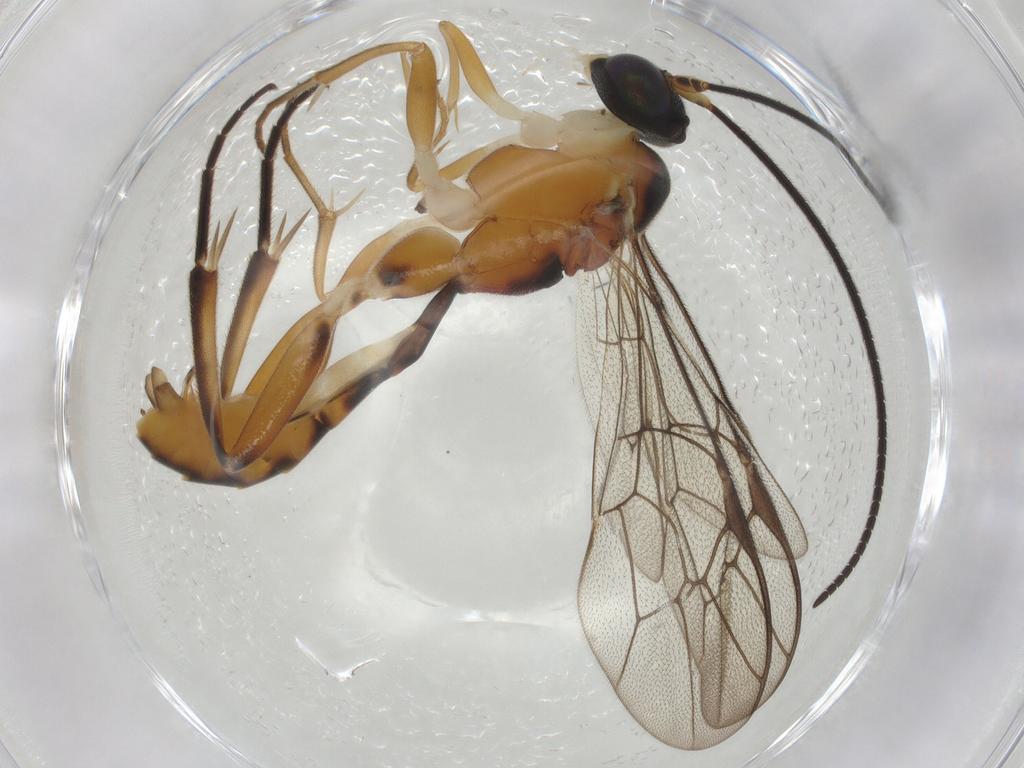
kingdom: Animalia
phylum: Arthropoda
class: Insecta
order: Hymenoptera
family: Ichneumonidae
